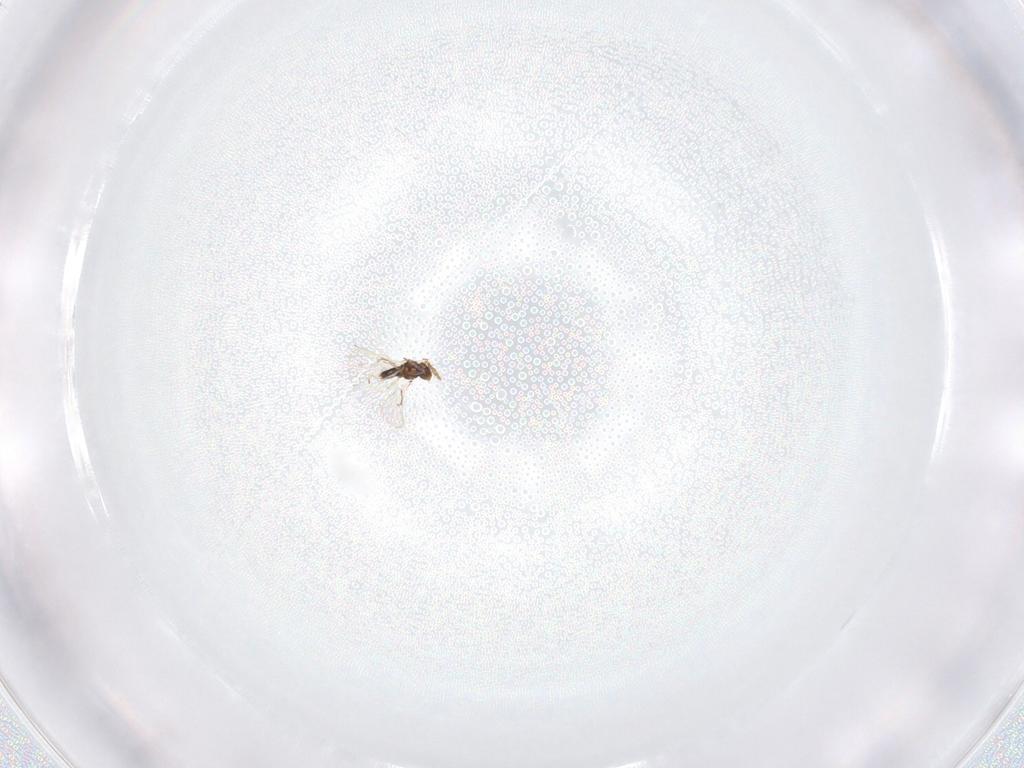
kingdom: Animalia
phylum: Arthropoda
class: Insecta
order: Hymenoptera
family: Trichogrammatidae
